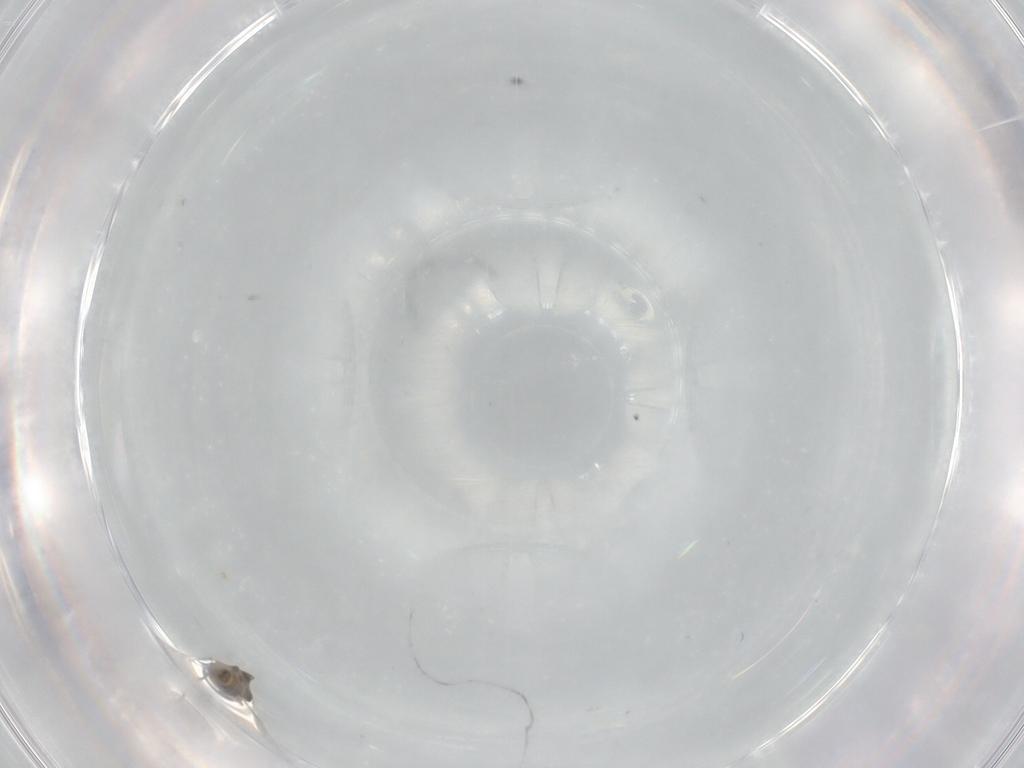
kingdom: Animalia
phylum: Arthropoda
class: Insecta
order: Diptera
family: Cecidomyiidae
